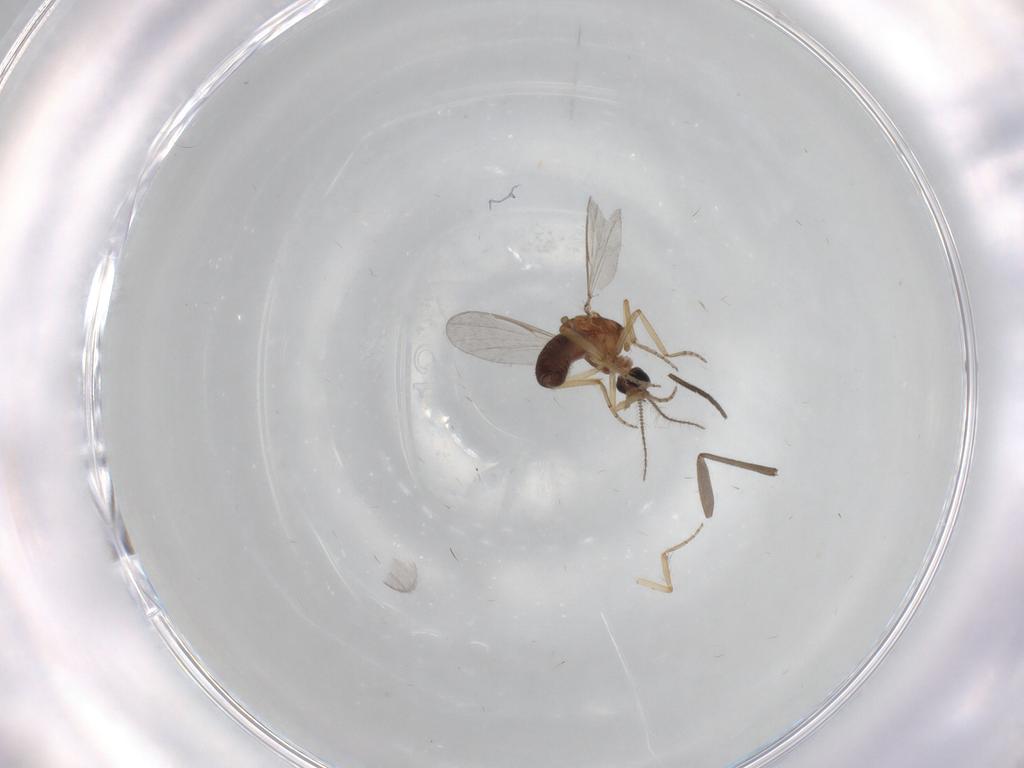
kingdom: Animalia
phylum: Arthropoda
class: Insecta
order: Diptera
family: Ceratopogonidae
